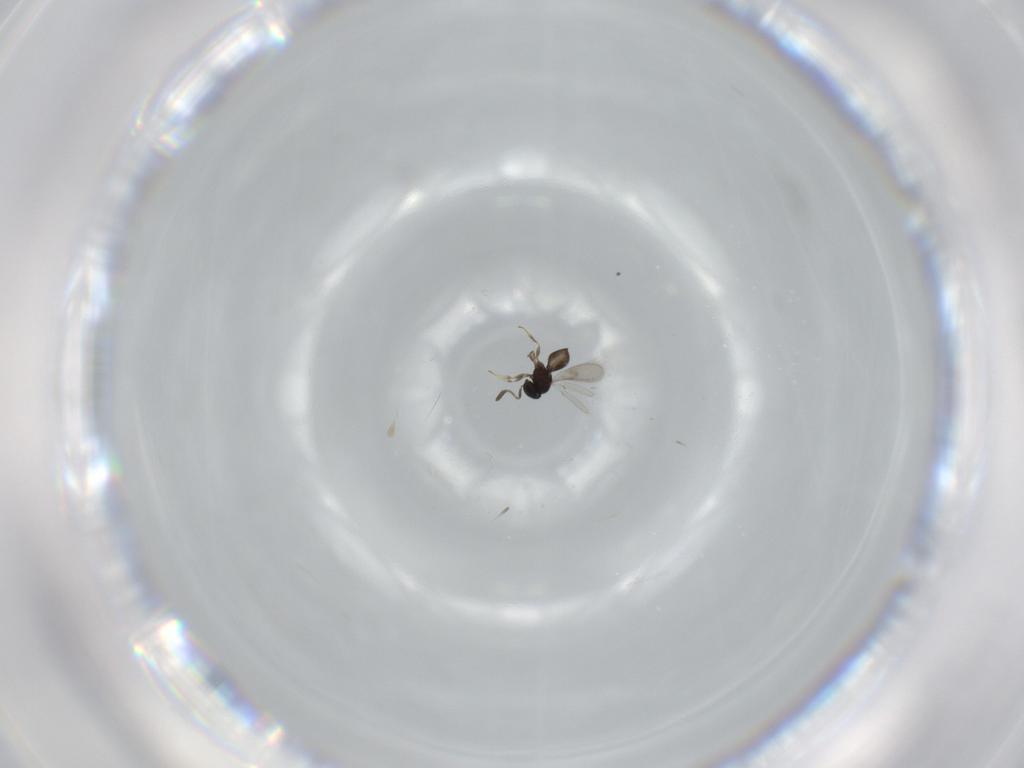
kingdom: Animalia
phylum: Arthropoda
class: Insecta
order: Hymenoptera
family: Scelionidae
